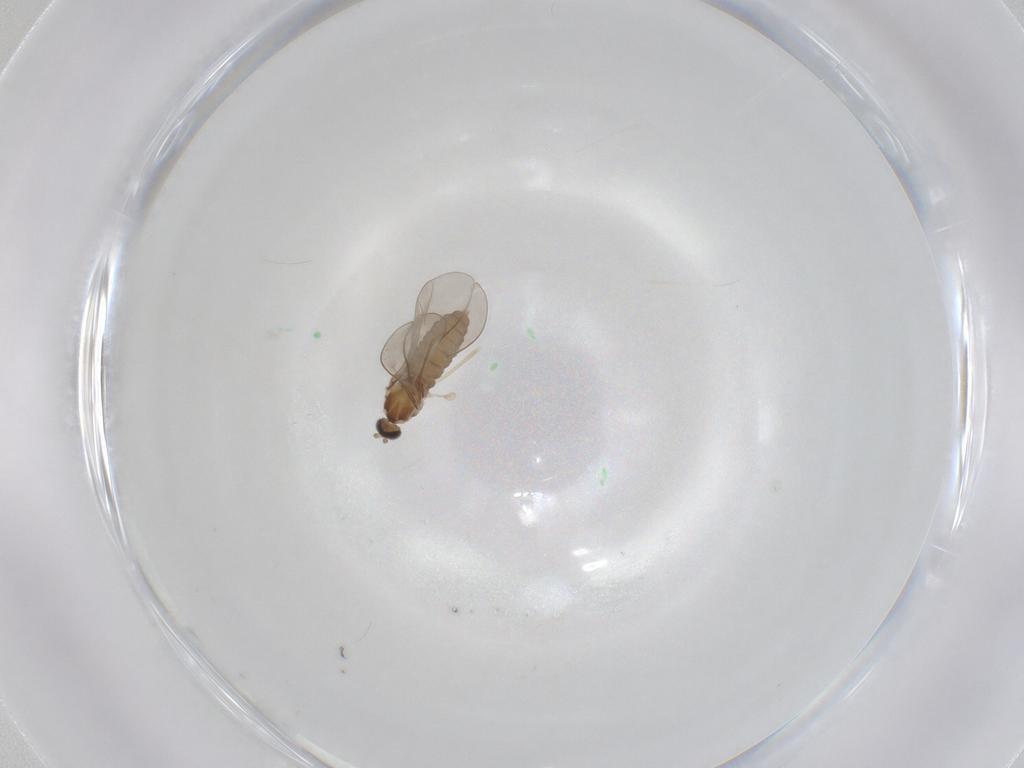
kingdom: Animalia
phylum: Arthropoda
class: Insecta
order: Diptera
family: Cecidomyiidae
